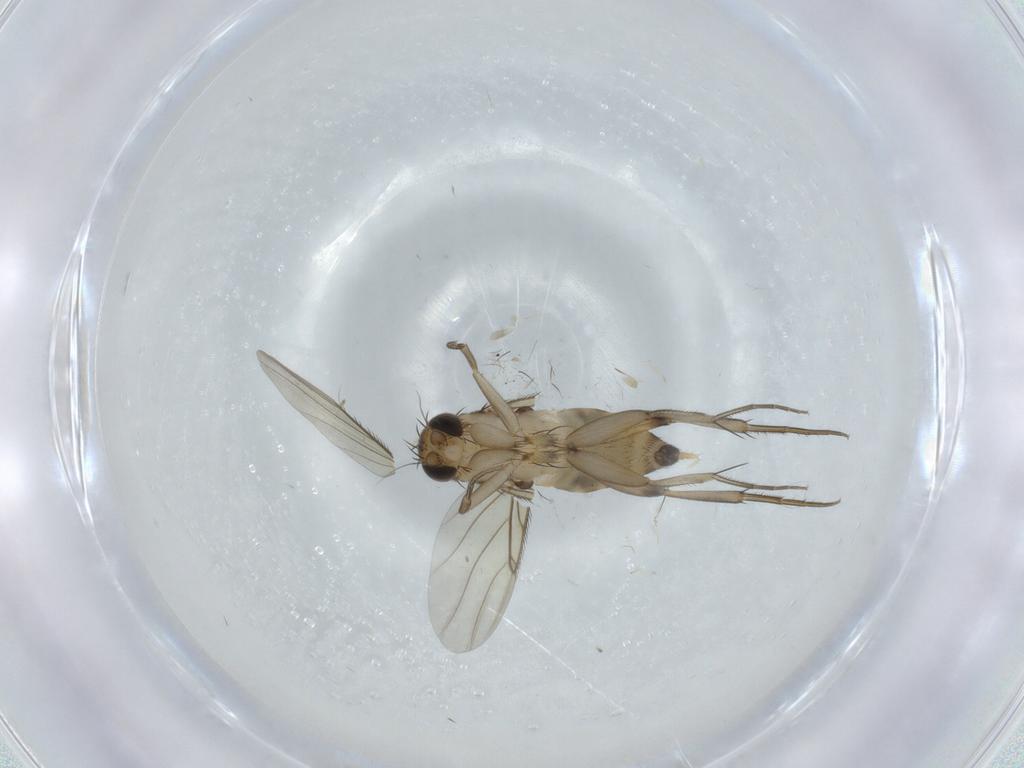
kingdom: Animalia
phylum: Arthropoda
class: Insecta
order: Diptera
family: Phoridae
